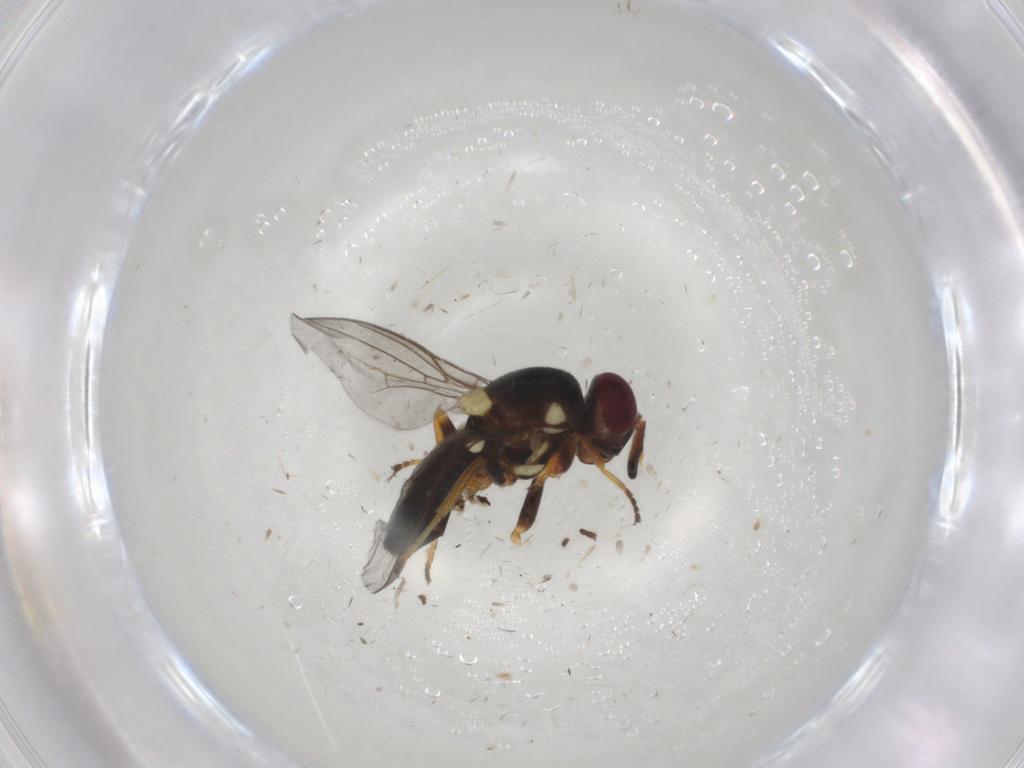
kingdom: Animalia
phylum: Arthropoda
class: Insecta
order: Diptera
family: Chloropidae
